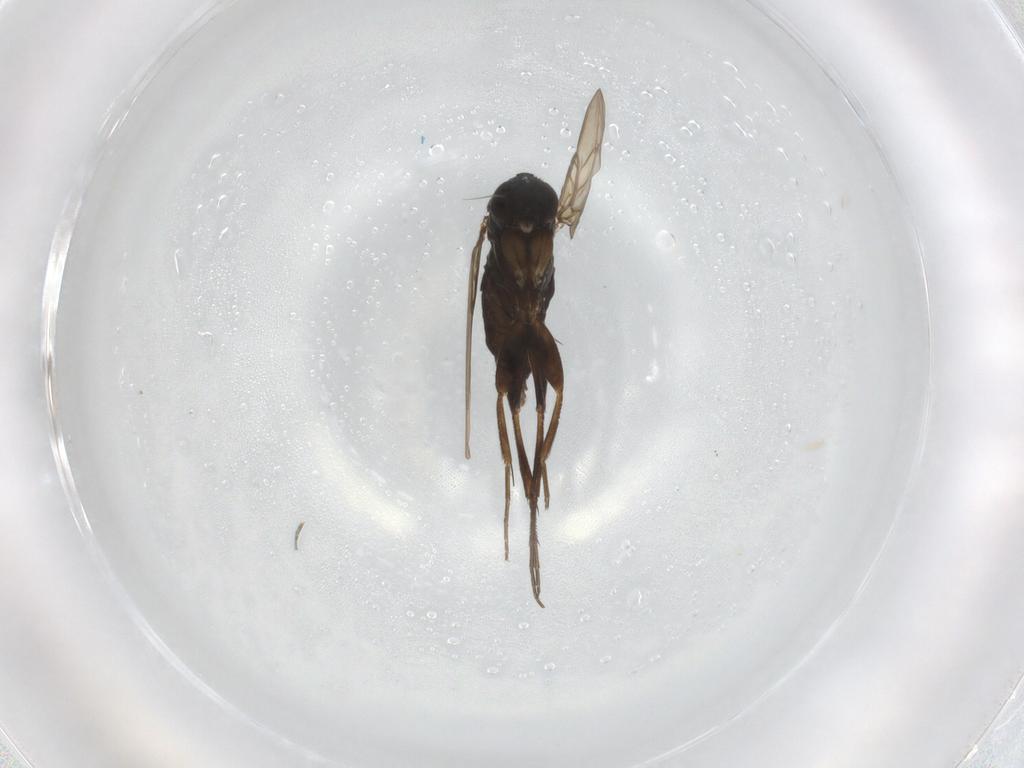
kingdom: Animalia
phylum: Arthropoda
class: Insecta
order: Diptera
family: Phoridae
